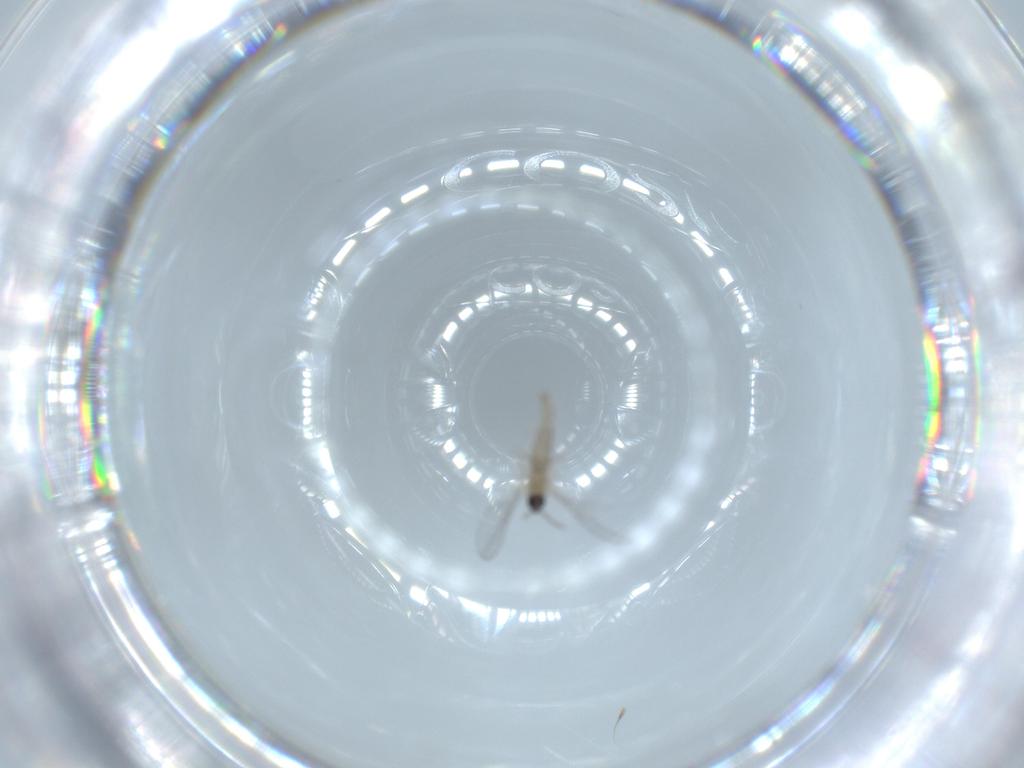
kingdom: Animalia
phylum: Arthropoda
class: Insecta
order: Diptera
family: Cecidomyiidae
